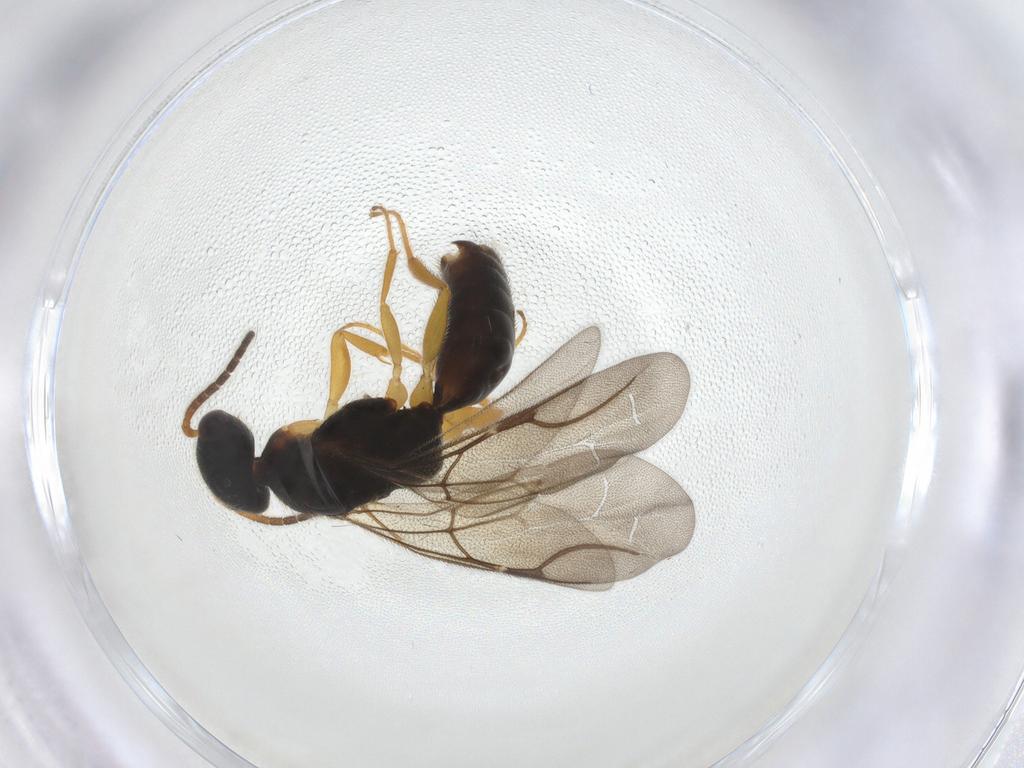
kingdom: Animalia
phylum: Arthropoda
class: Insecta
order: Hymenoptera
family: Bethylidae
